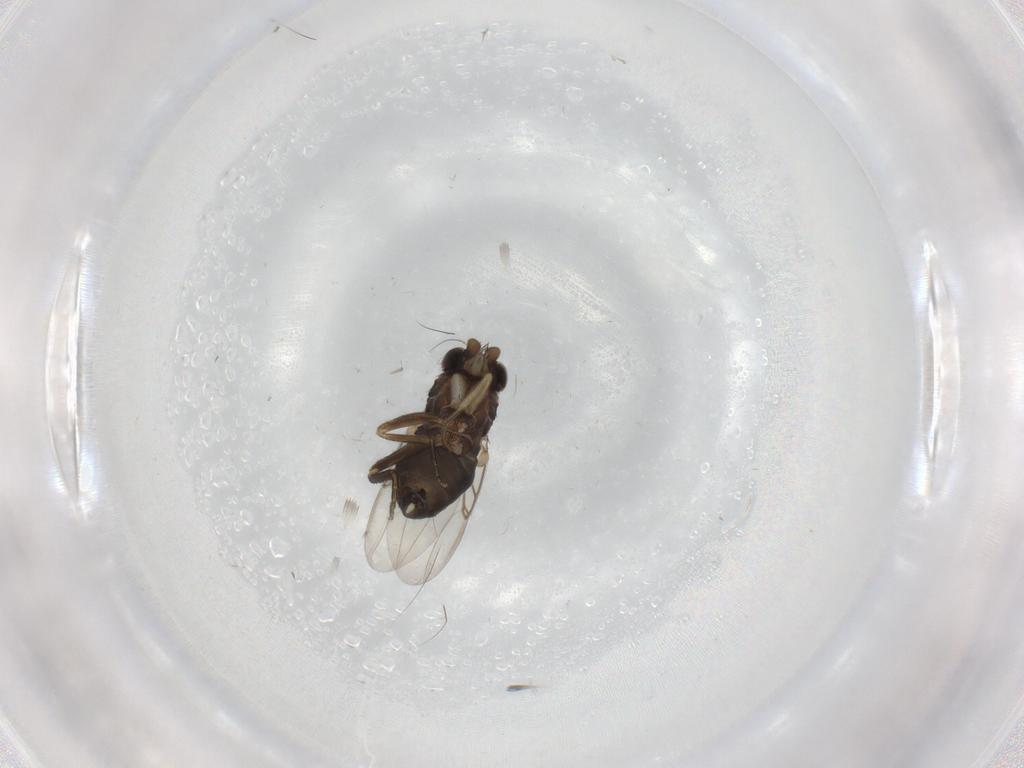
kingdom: Animalia
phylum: Arthropoda
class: Insecta
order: Diptera
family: Phoridae
